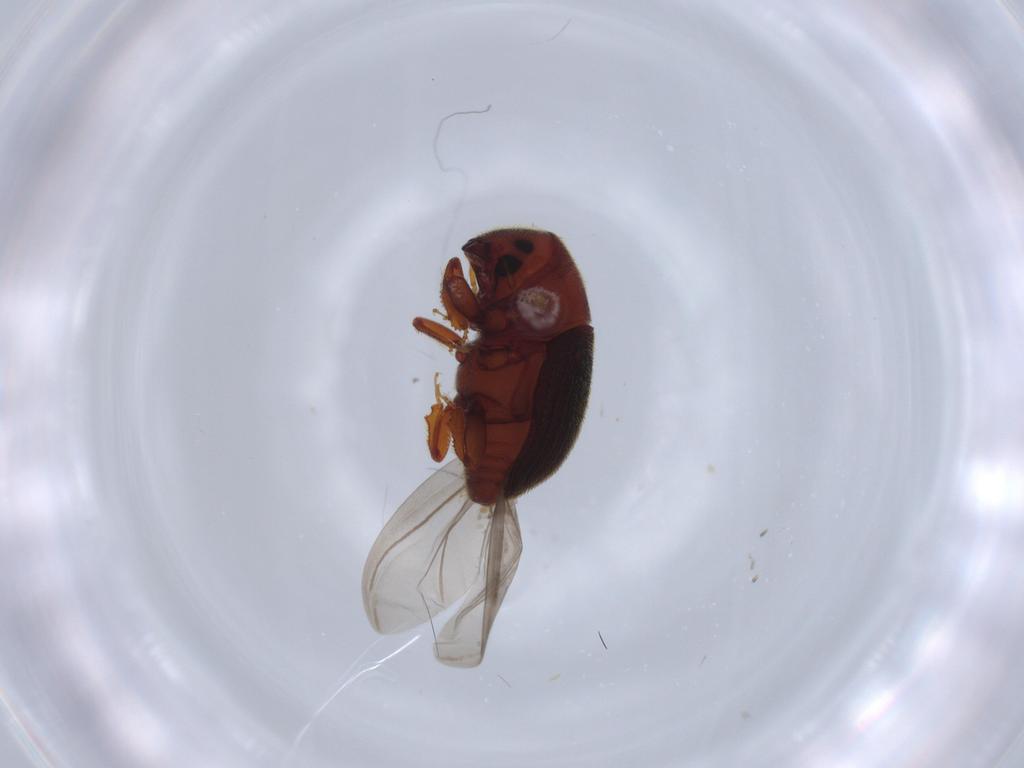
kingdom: Animalia
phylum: Arthropoda
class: Insecta
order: Coleoptera
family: Curculionidae
